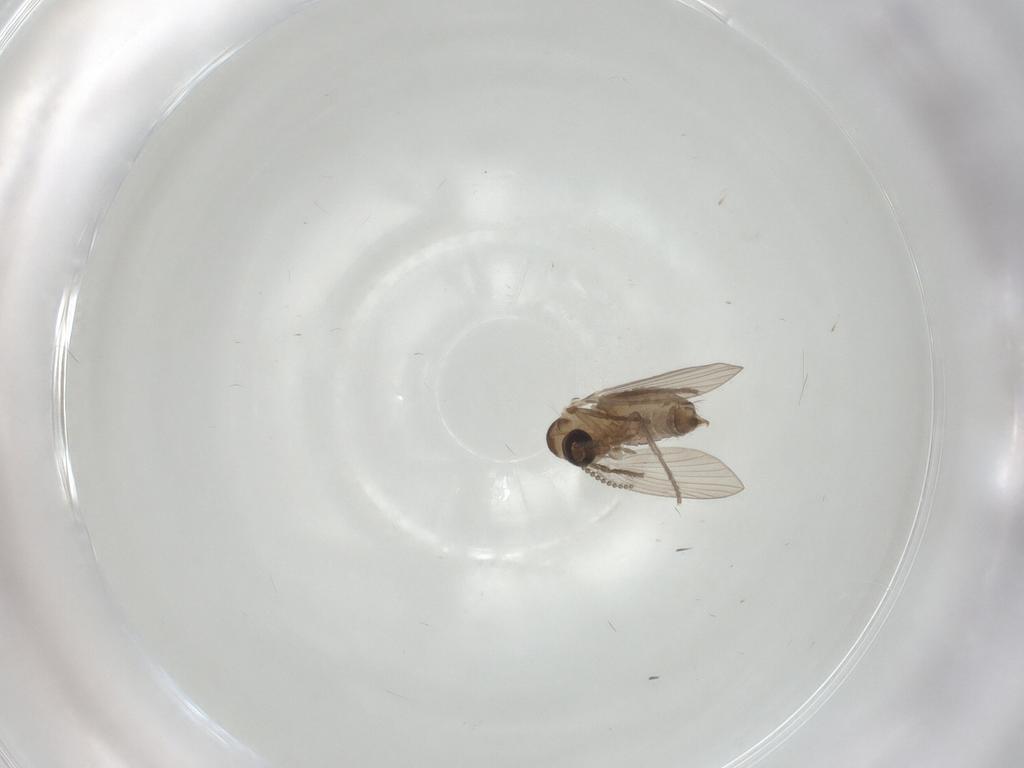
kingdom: Animalia
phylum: Arthropoda
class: Insecta
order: Diptera
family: Psychodidae
